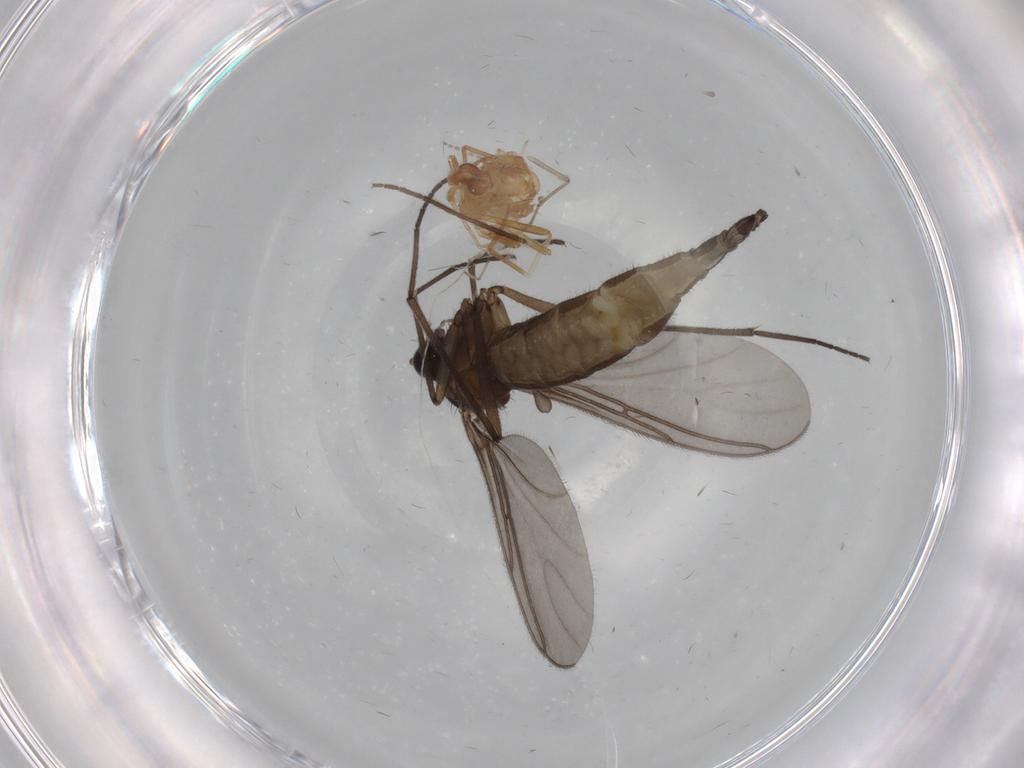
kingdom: Animalia
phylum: Arthropoda
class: Insecta
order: Diptera
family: Sciaridae
